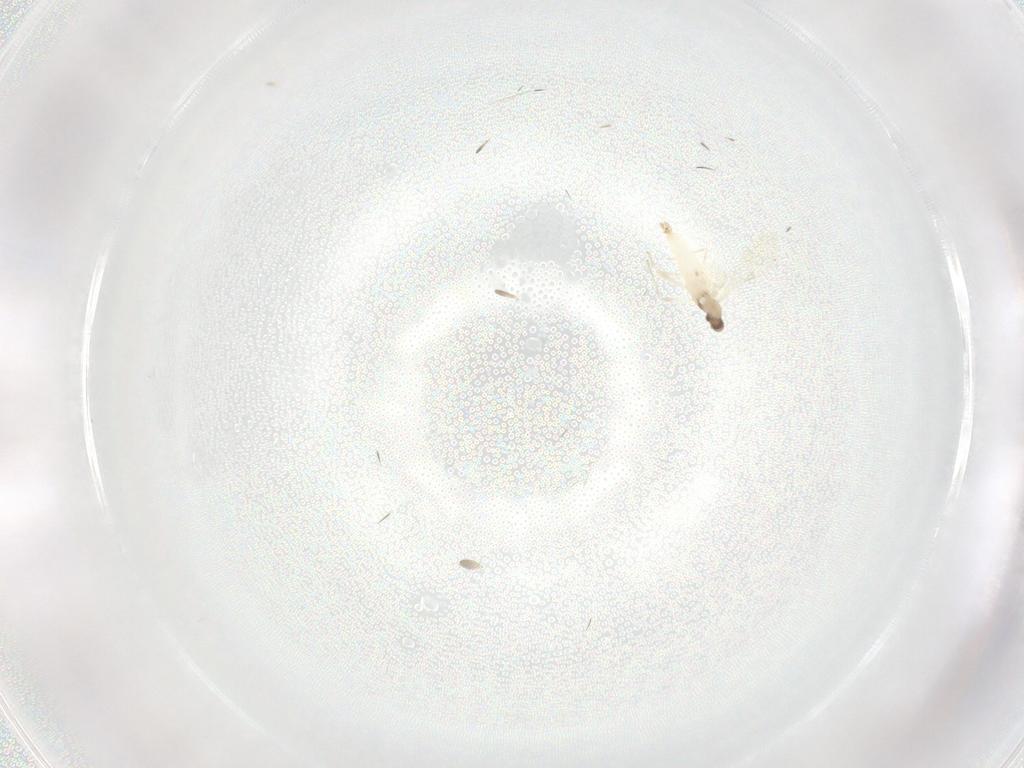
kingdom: Animalia
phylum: Arthropoda
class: Insecta
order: Diptera
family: Cecidomyiidae
